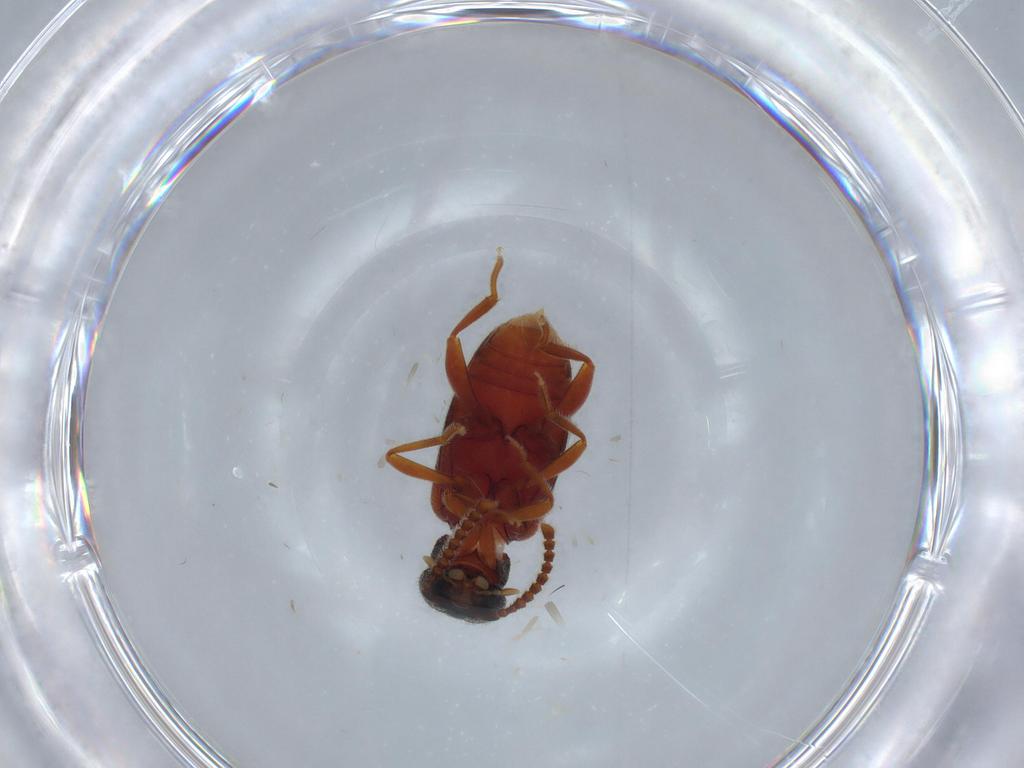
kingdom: Animalia
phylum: Arthropoda
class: Insecta
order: Coleoptera
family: Aderidae
